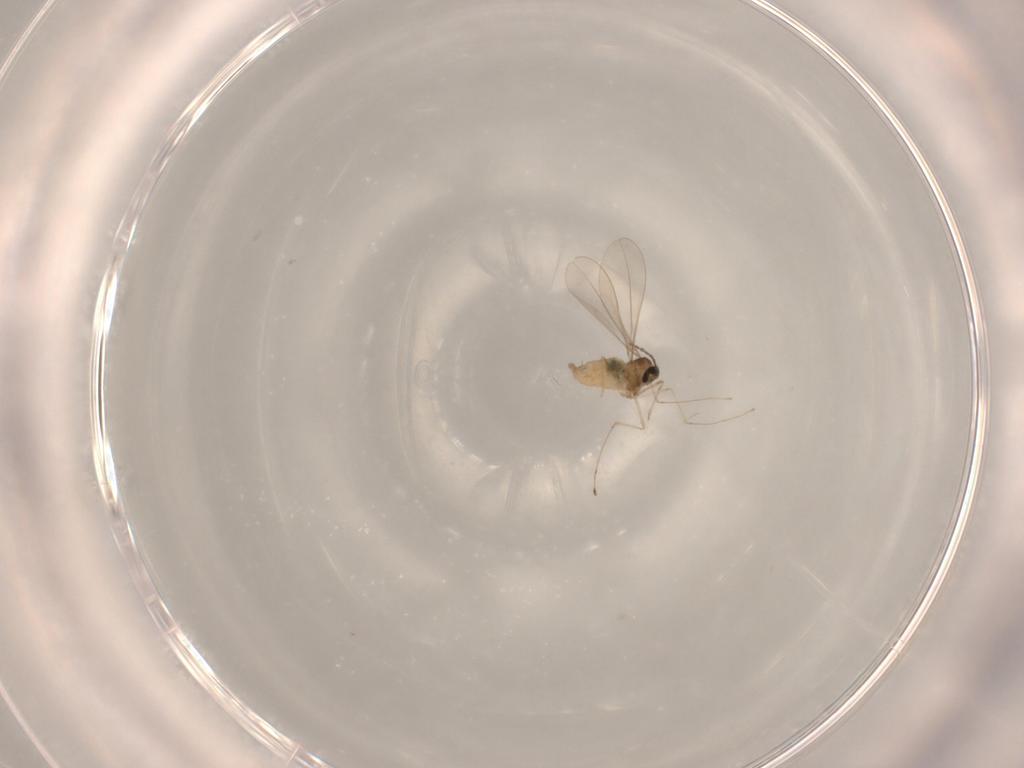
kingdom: Animalia
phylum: Arthropoda
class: Insecta
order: Diptera
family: Cecidomyiidae
